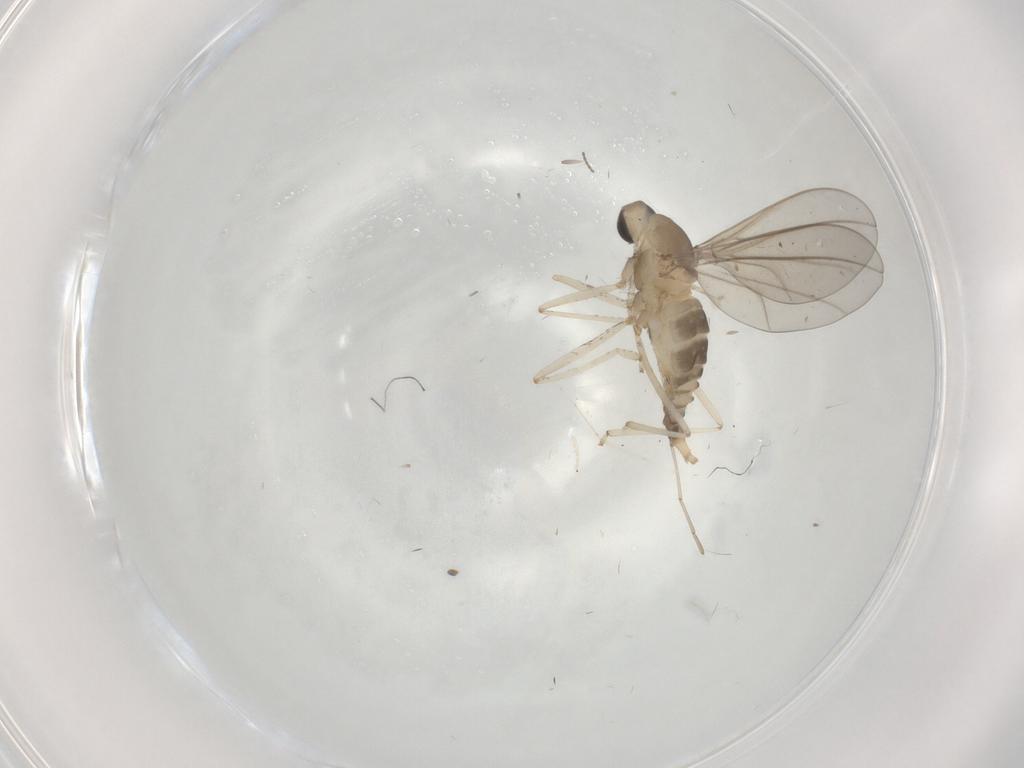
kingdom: Animalia
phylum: Arthropoda
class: Insecta
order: Diptera
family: Cecidomyiidae
